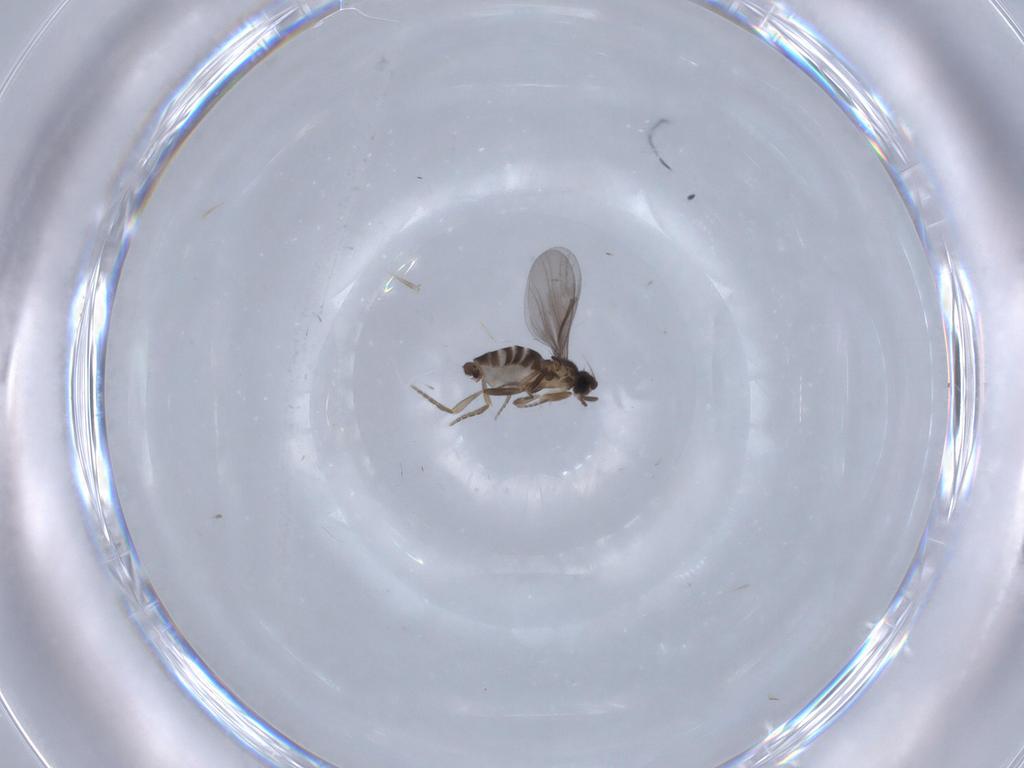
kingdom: Animalia
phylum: Arthropoda
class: Insecta
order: Diptera
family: Phoridae
